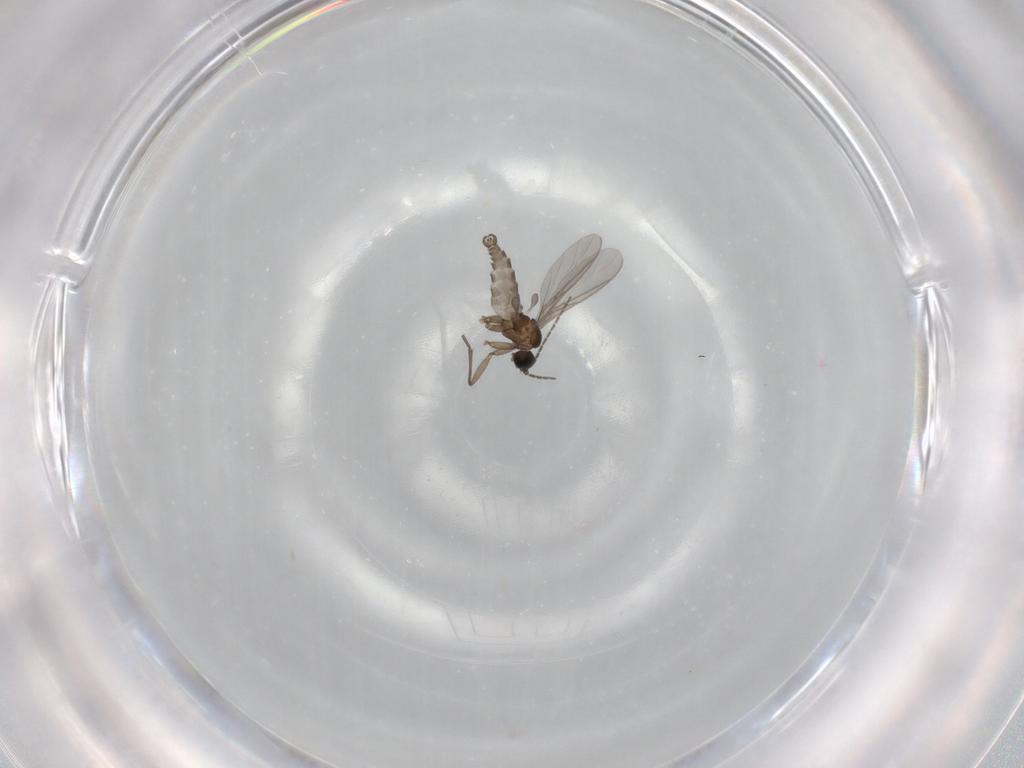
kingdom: Animalia
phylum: Arthropoda
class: Insecta
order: Diptera
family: Sciaridae
